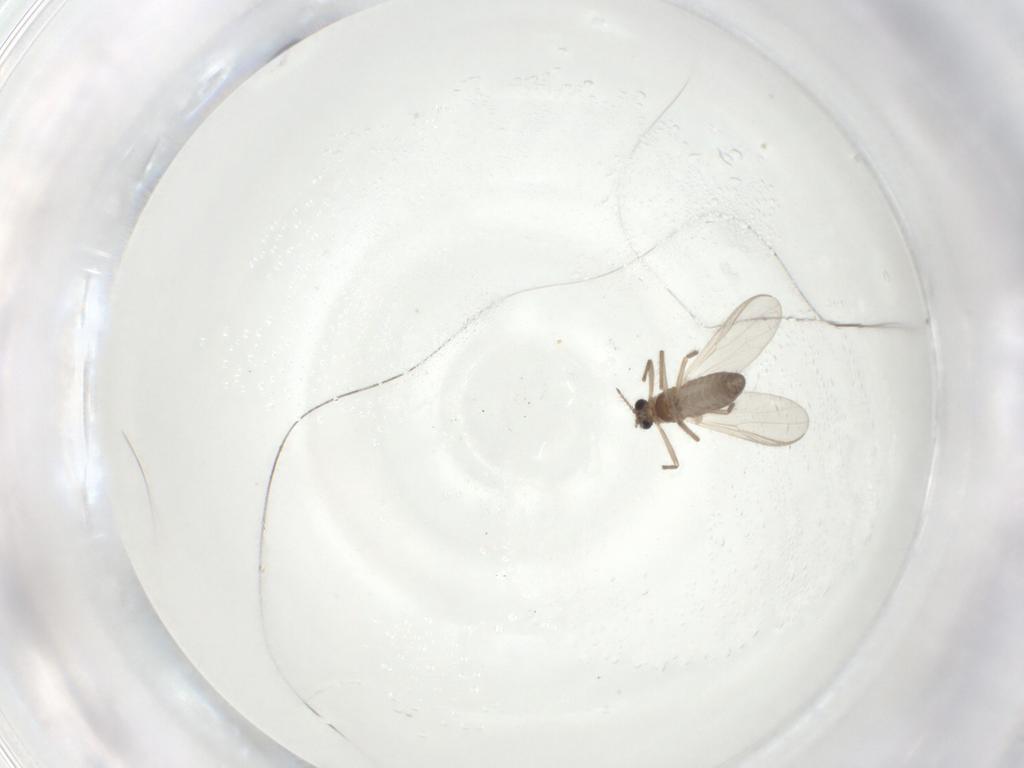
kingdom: Animalia
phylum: Arthropoda
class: Insecta
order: Diptera
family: Chironomidae
